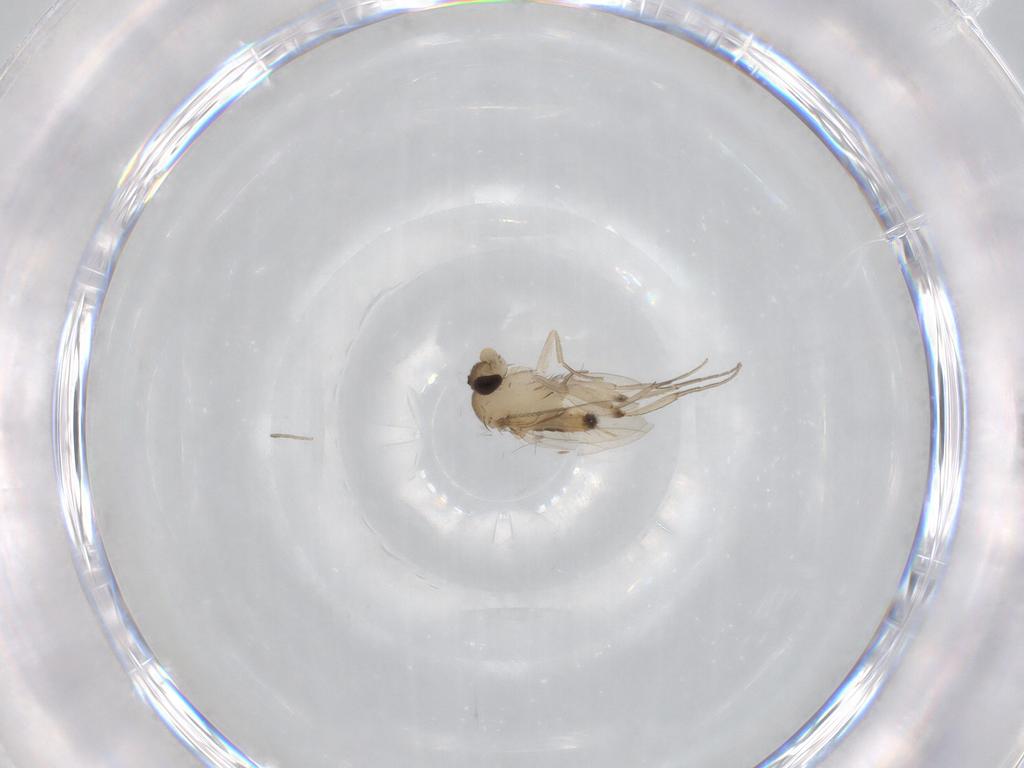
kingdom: Animalia
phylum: Arthropoda
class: Insecta
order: Diptera
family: Phoridae
